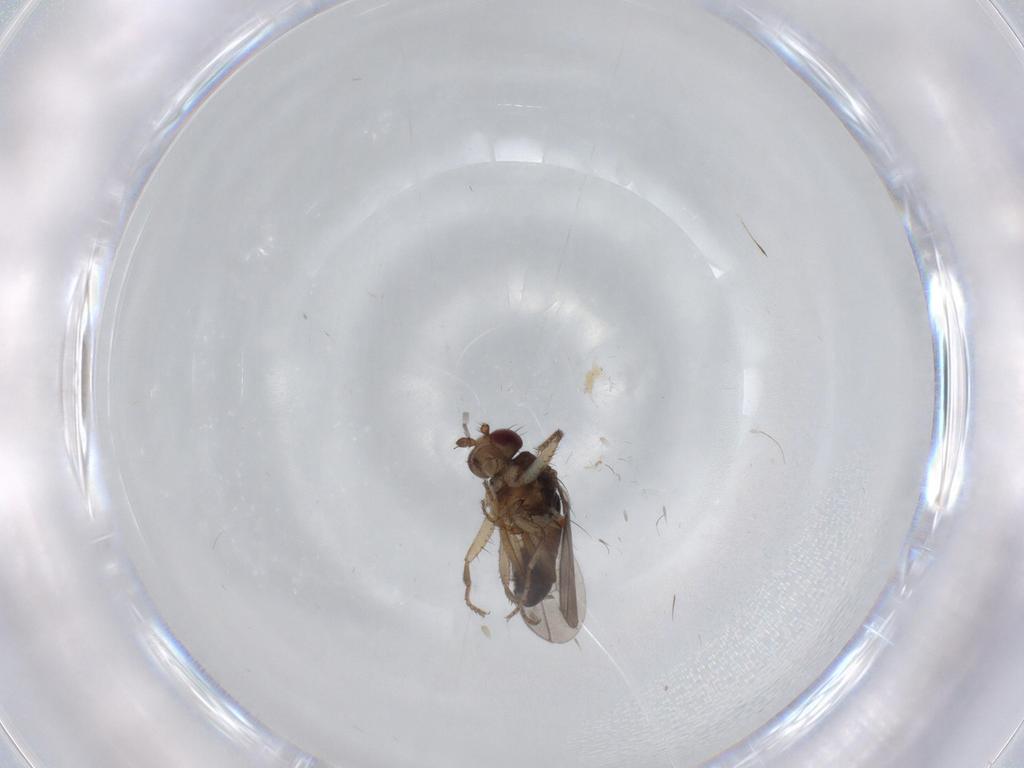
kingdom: Animalia
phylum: Arthropoda
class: Insecta
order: Diptera
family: Sphaeroceridae
